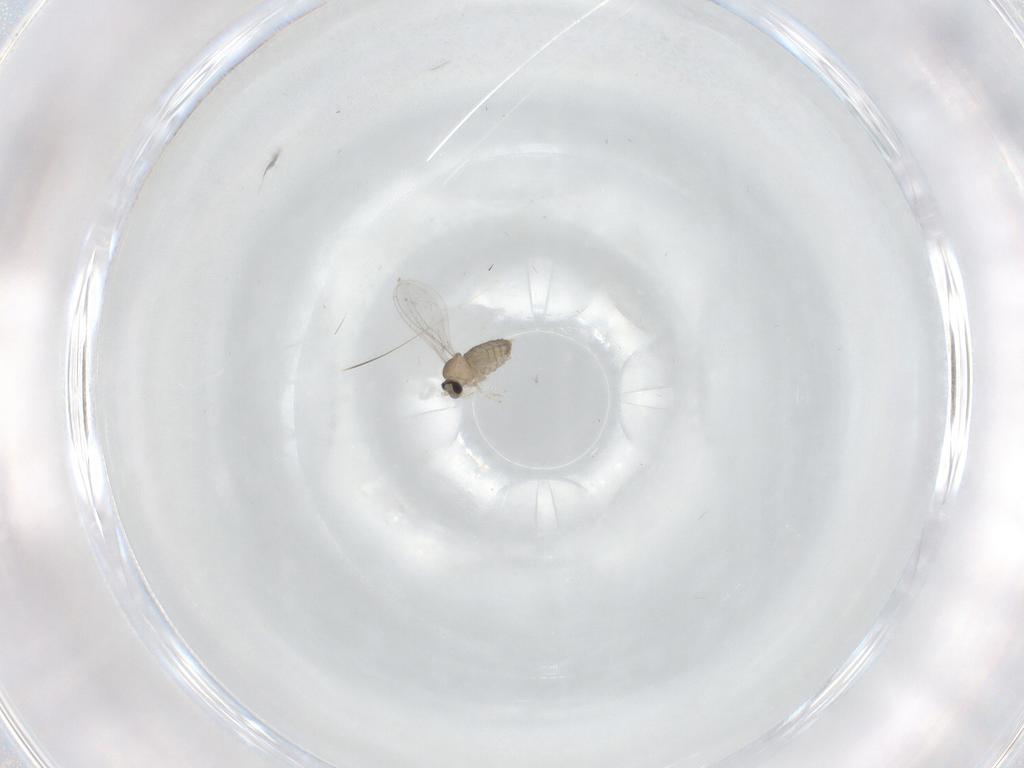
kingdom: Animalia
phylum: Arthropoda
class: Insecta
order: Diptera
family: Cecidomyiidae
